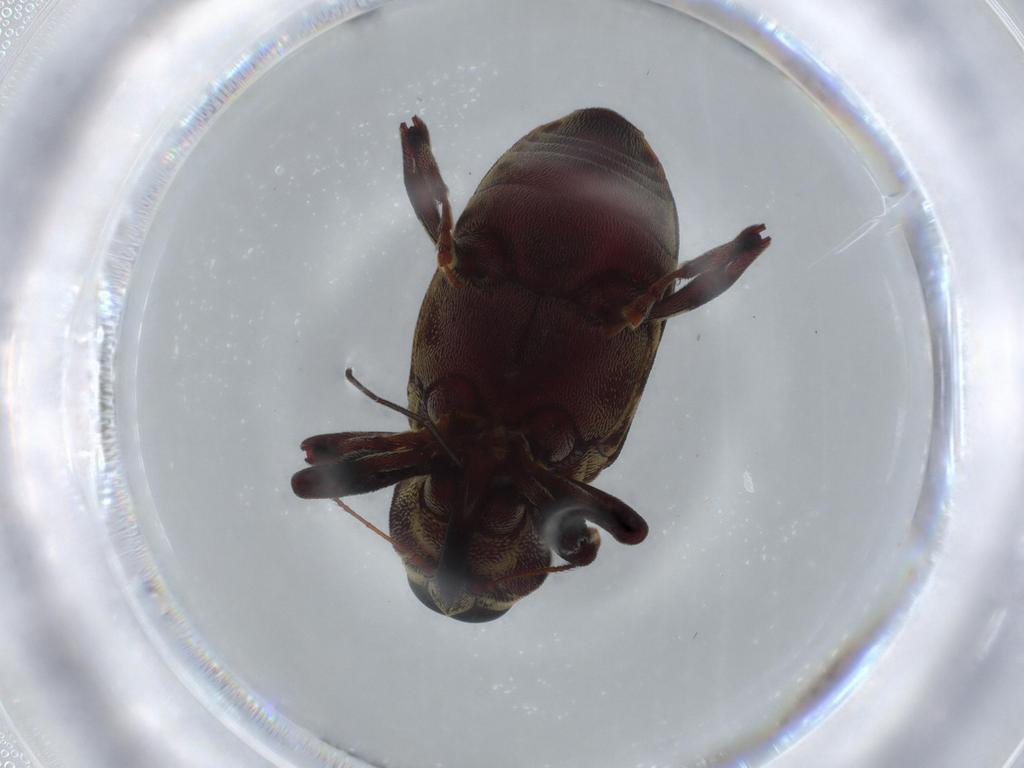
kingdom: Animalia
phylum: Arthropoda
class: Insecta
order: Coleoptera
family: Curculionidae
